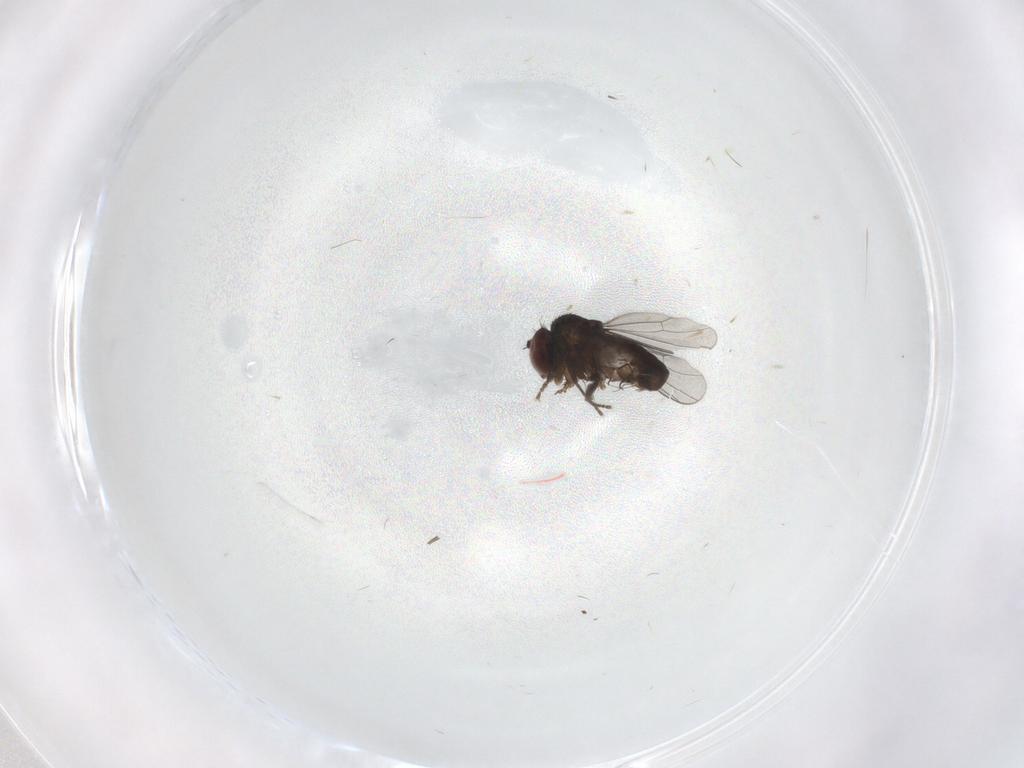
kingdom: Animalia
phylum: Arthropoda
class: Insecta
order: Diptera
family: Dolichopodidae
